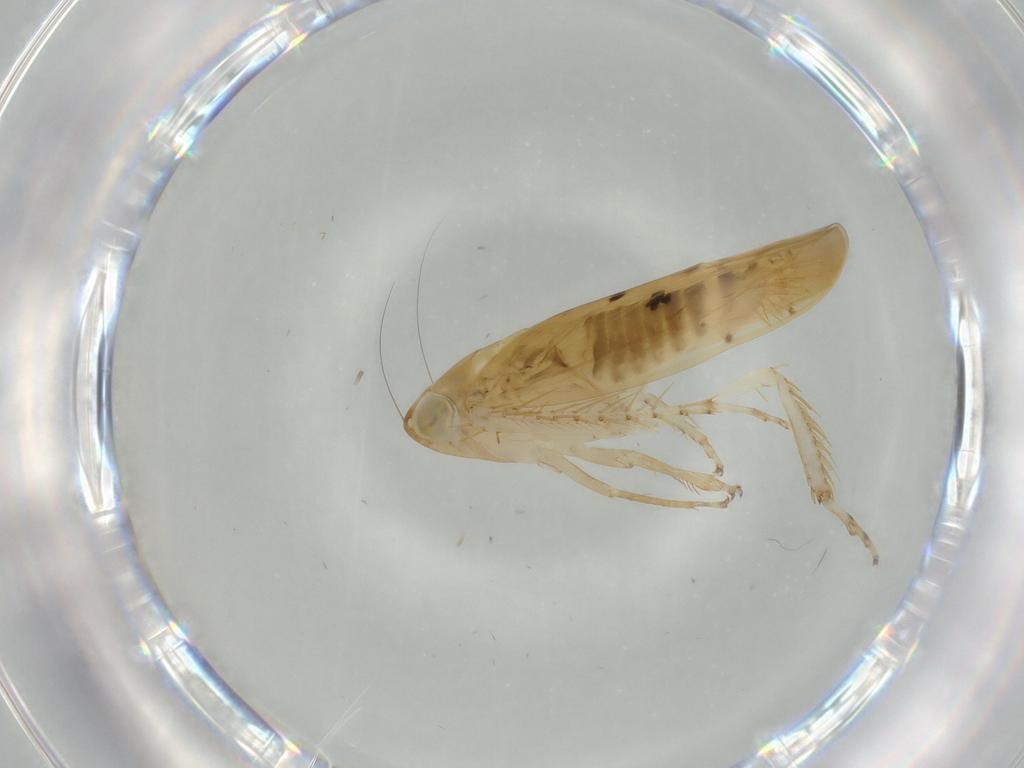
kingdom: Animalia
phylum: Arthropoda
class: Insecta
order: Hemiptera
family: Cicadellidae
